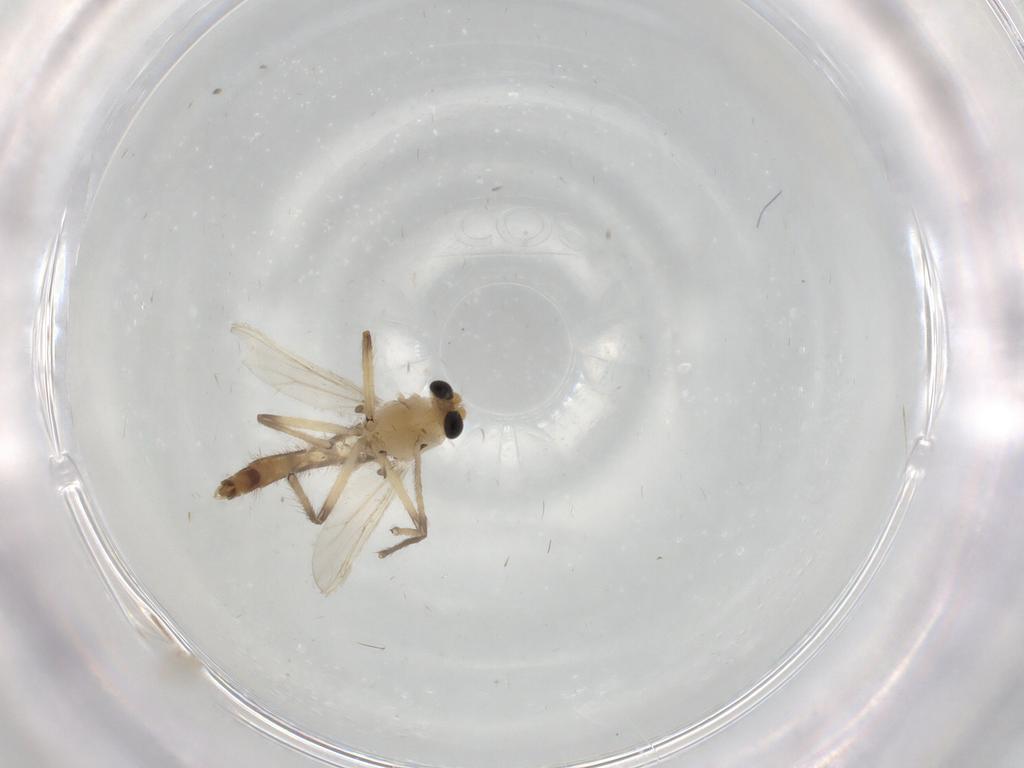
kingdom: Animalia
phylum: Arthropoda
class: Insecta
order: Diptera
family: Chironomidae
